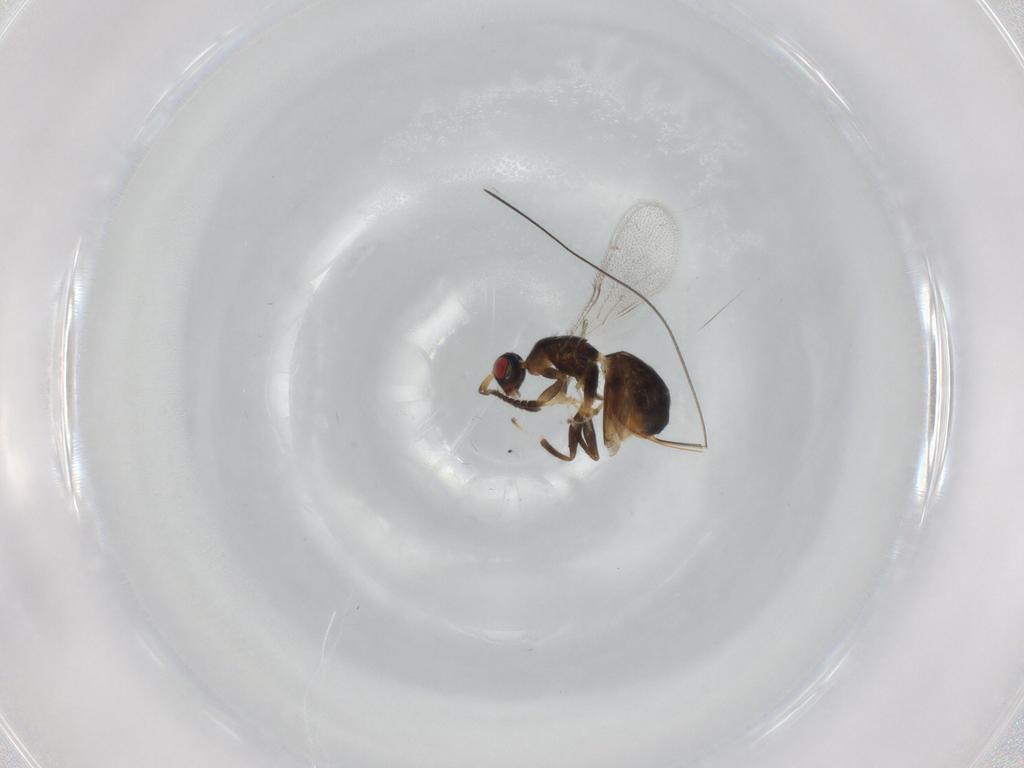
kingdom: Animalia
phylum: Arthropoda
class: Insecta
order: Hymenoptera
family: Torymidae
